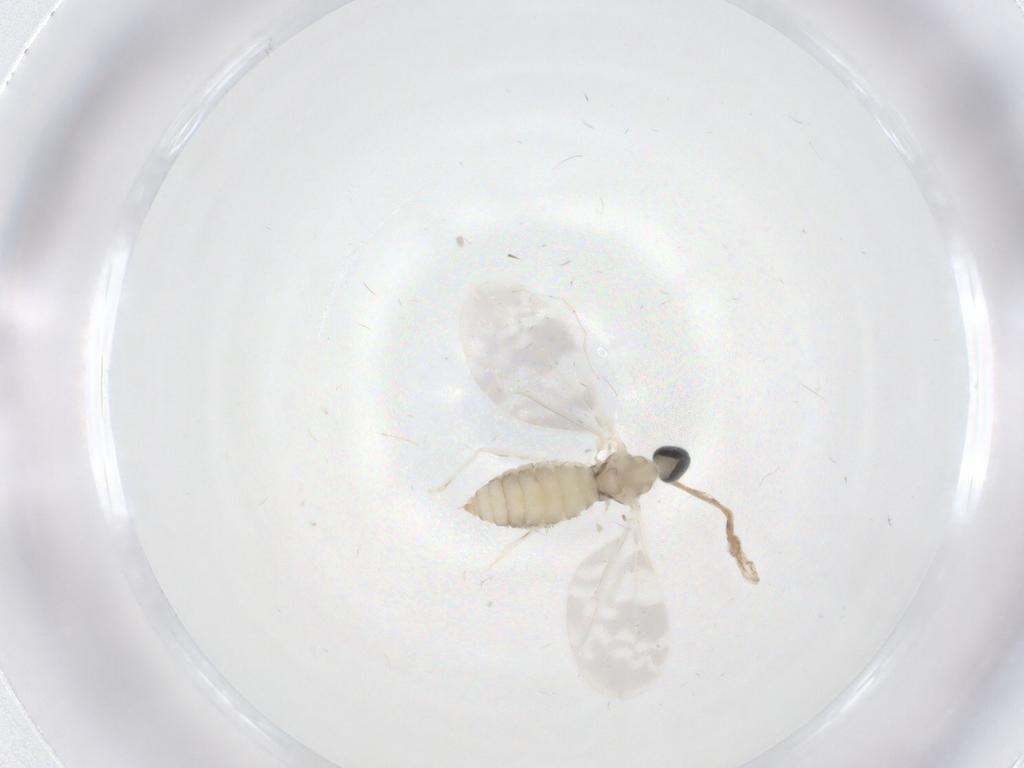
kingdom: Animalia
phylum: Arthropoda
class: Insecta
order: Diptera
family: Cecidomyiidae
